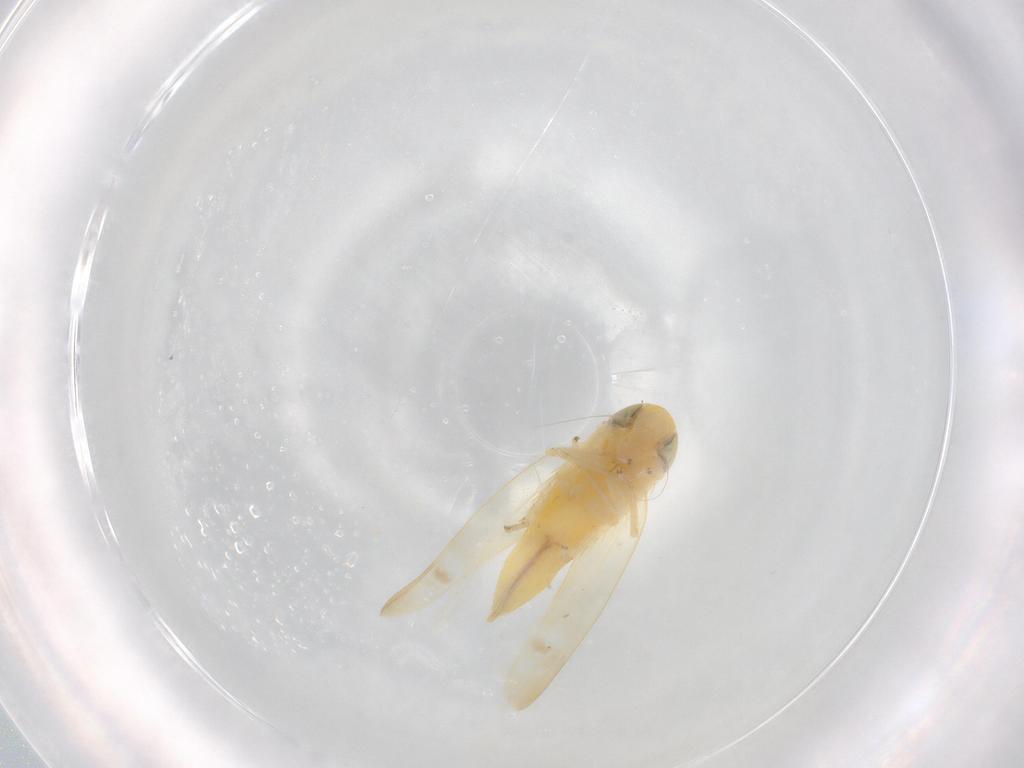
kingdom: Animalia
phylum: Arthropoda
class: Insecta
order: Hemiptera
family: Cicadellidae
